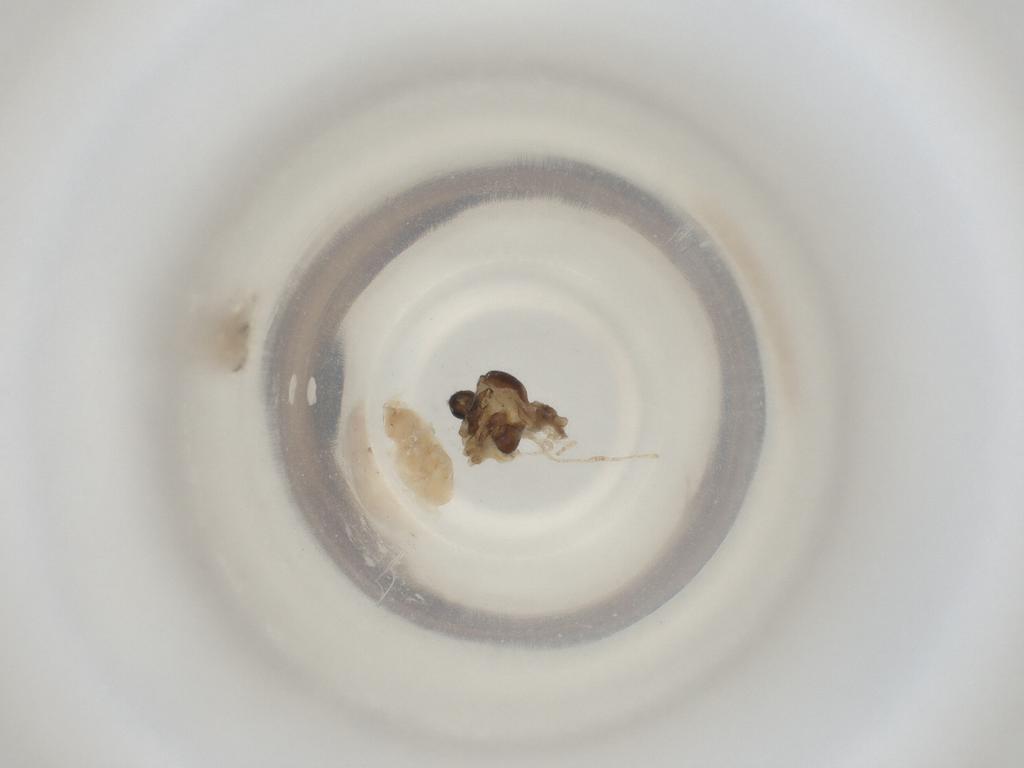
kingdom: Animalia
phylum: Arthropoda
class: Insecta
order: Diptera
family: Cecidomyiidae
